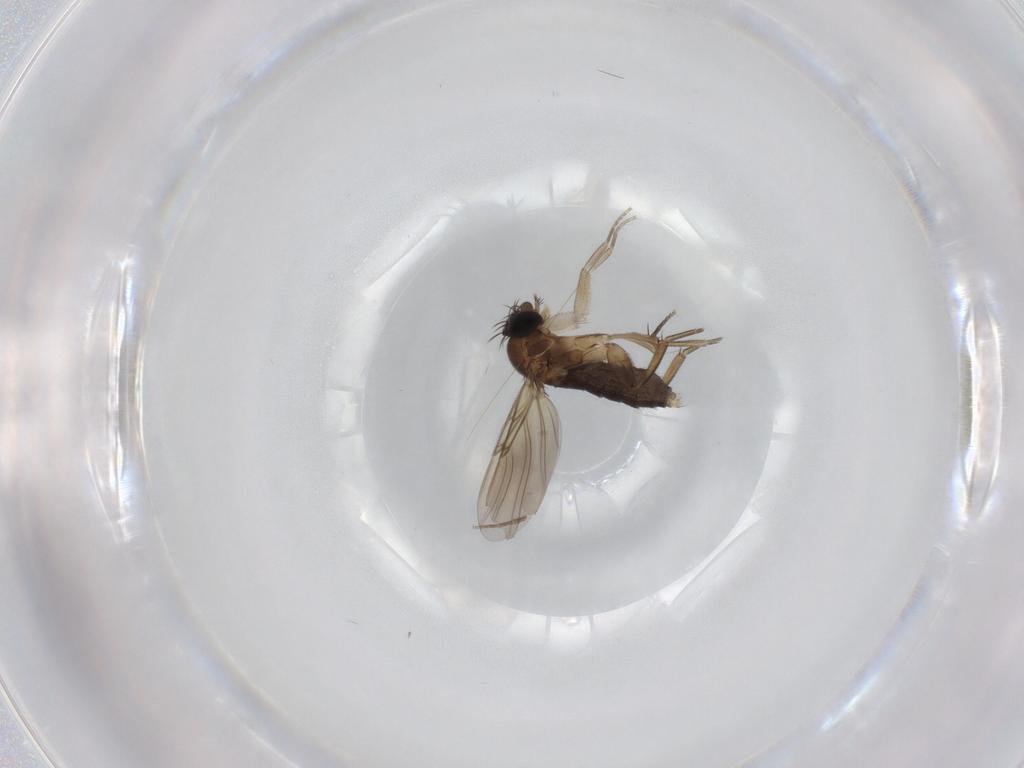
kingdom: Animalia
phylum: Arthropoda
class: Insecta
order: Diptera
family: Phoridae
